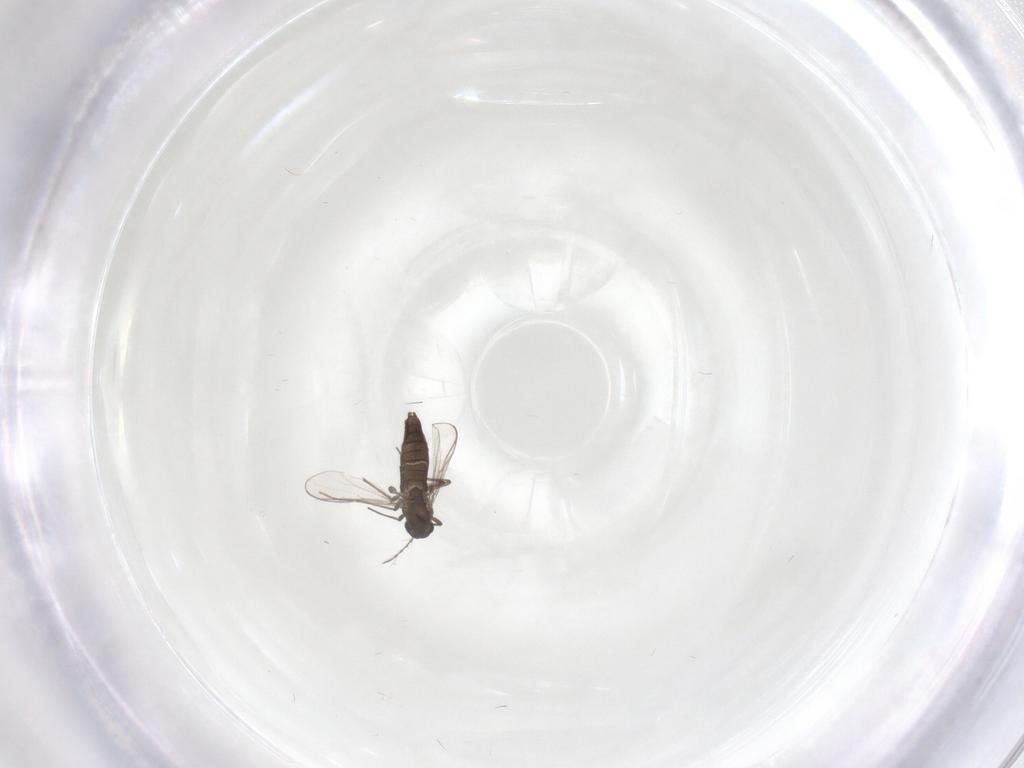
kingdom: Animalia
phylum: Arthropoda
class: Insecta
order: Diptera
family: Chironomidae
